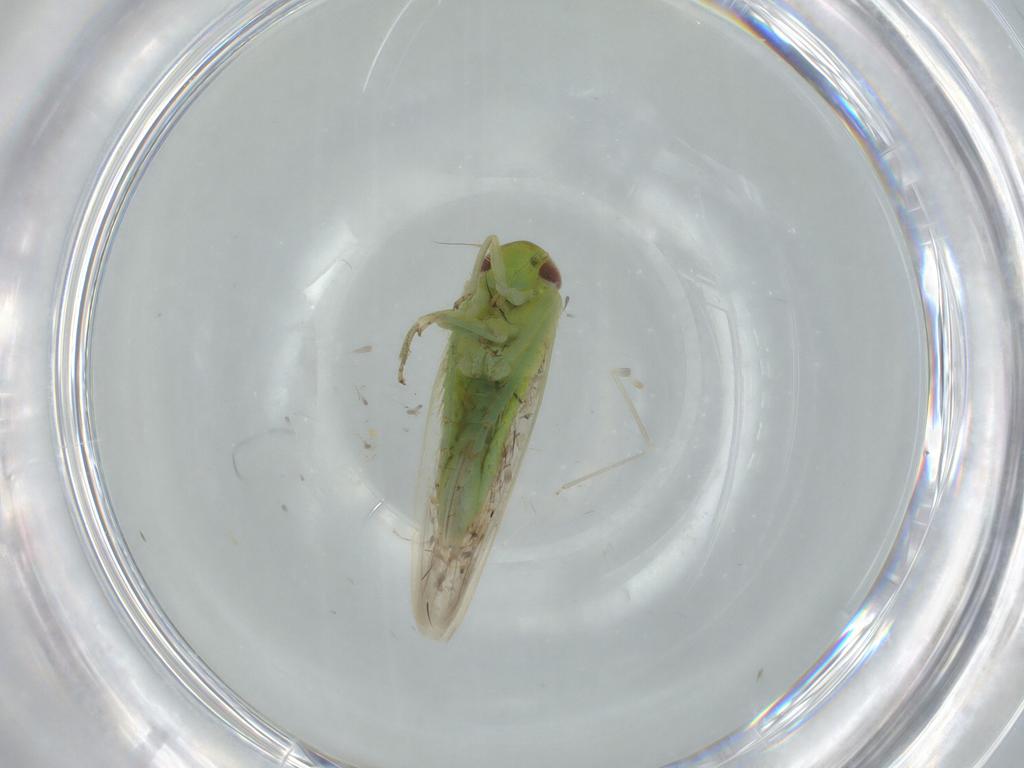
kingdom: Animalia
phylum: Arthropoda
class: Insecta
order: Hemiptera
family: Cicadellidae
